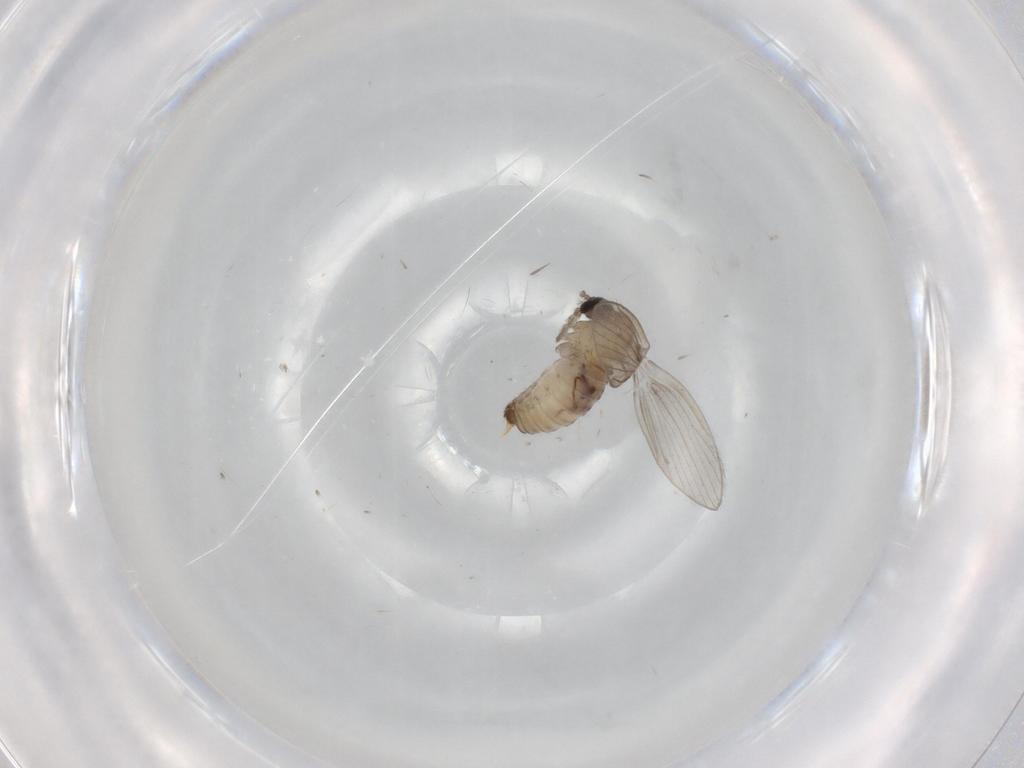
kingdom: Animalia
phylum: Arthropoda
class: Insecta
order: Diptera
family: Psychodidae
